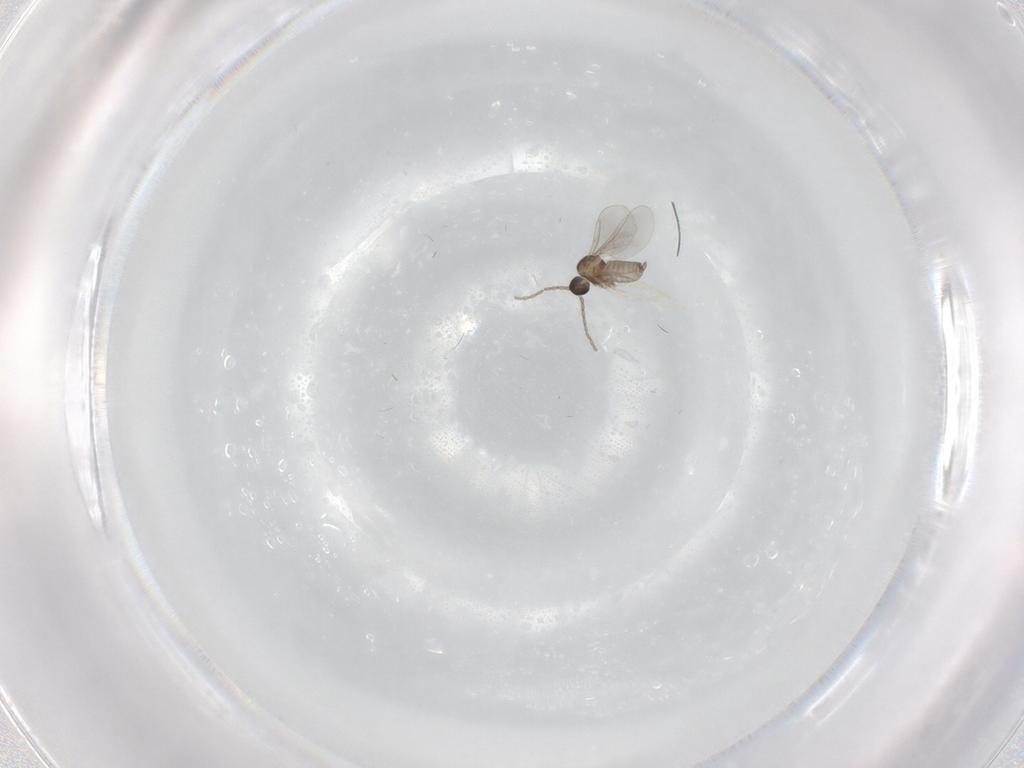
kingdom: Animalia
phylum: Arthropoda
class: Insecta
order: Diptera
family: Cecidomyiidae
